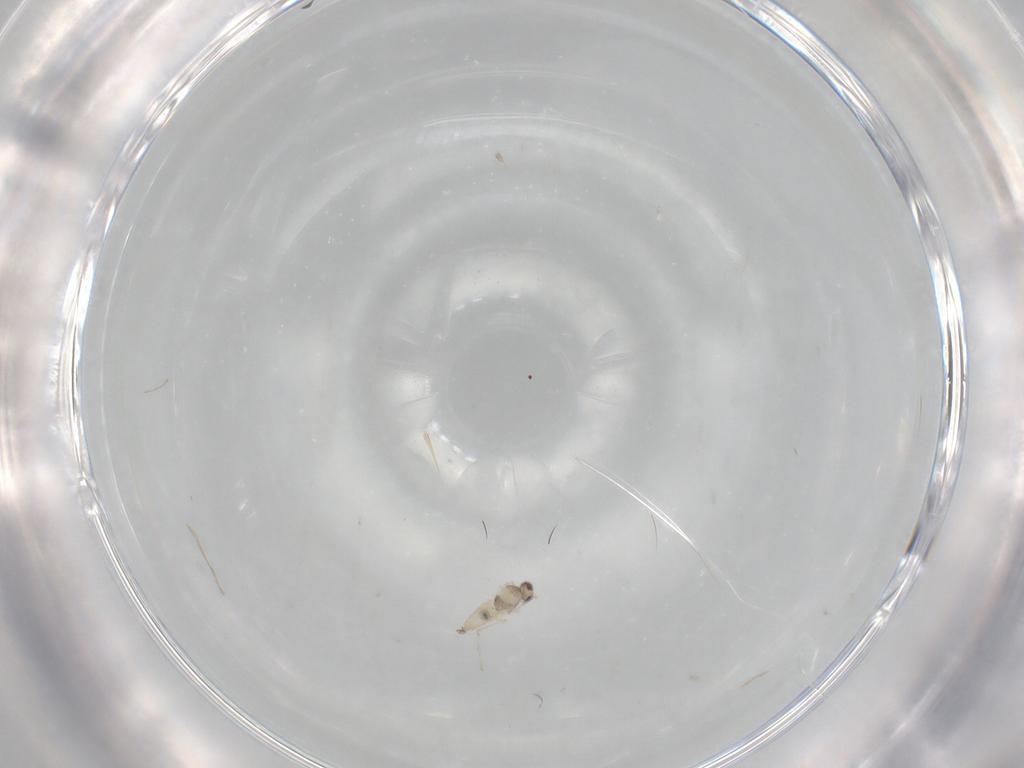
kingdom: Animalia
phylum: Arthropoda
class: Insecta
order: Diptera
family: Cecidomyiidae
